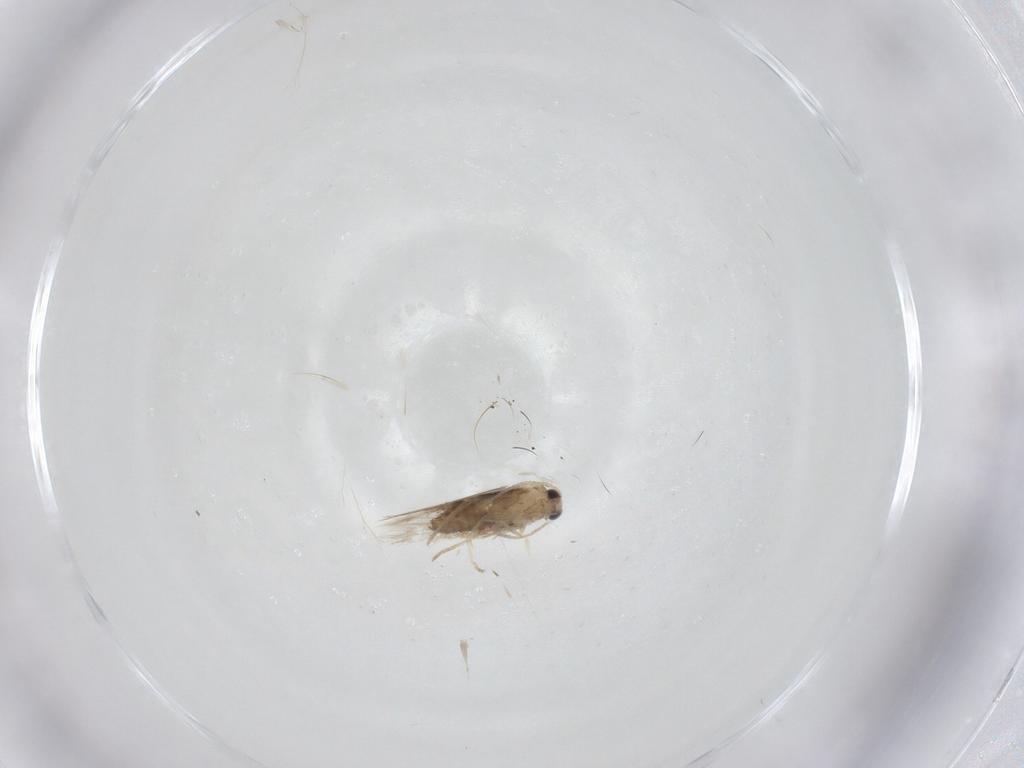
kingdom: Animalia
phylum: Arthropoda
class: Insecta
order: Lepidoptera
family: Nepticulidae
